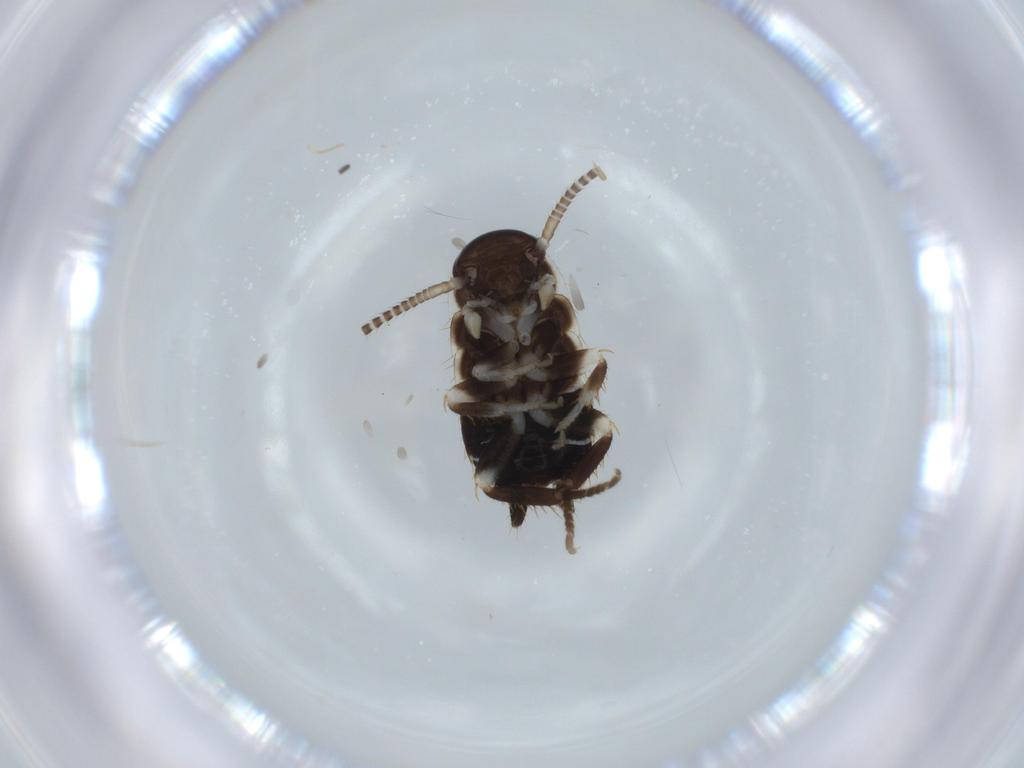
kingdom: Animalia
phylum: Arthropoda
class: Insecta
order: Blattodea
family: Ectobiidae
